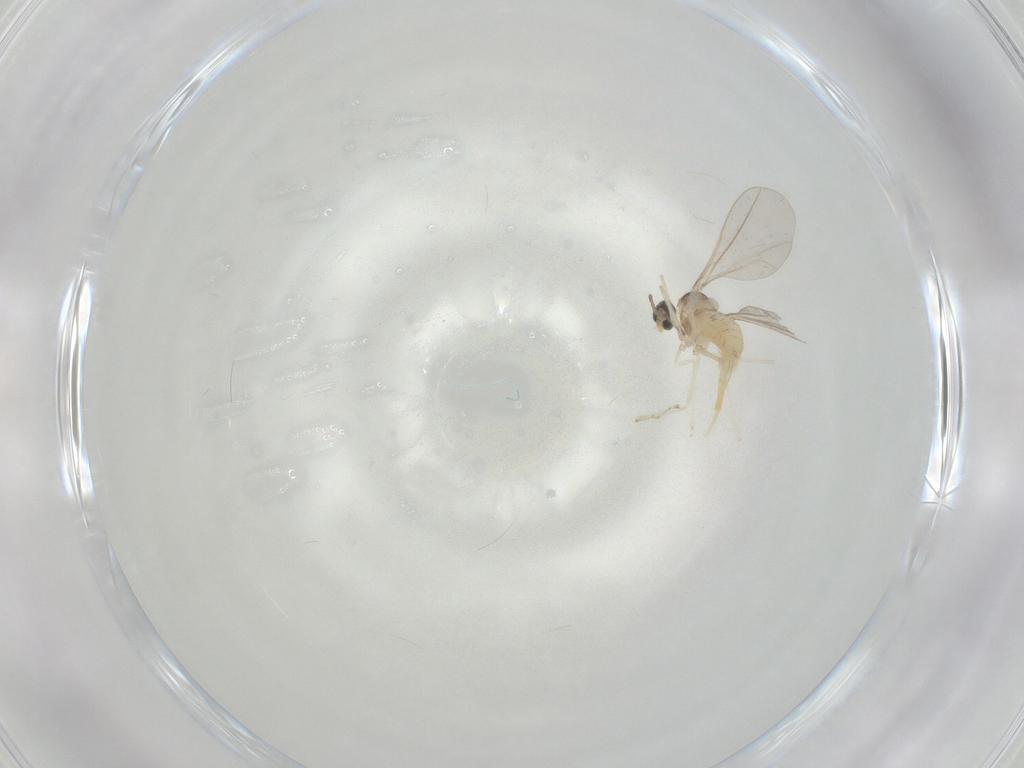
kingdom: Animalia
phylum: Arthropoda
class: Insecta
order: Diptera
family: Cecidomyiidae
